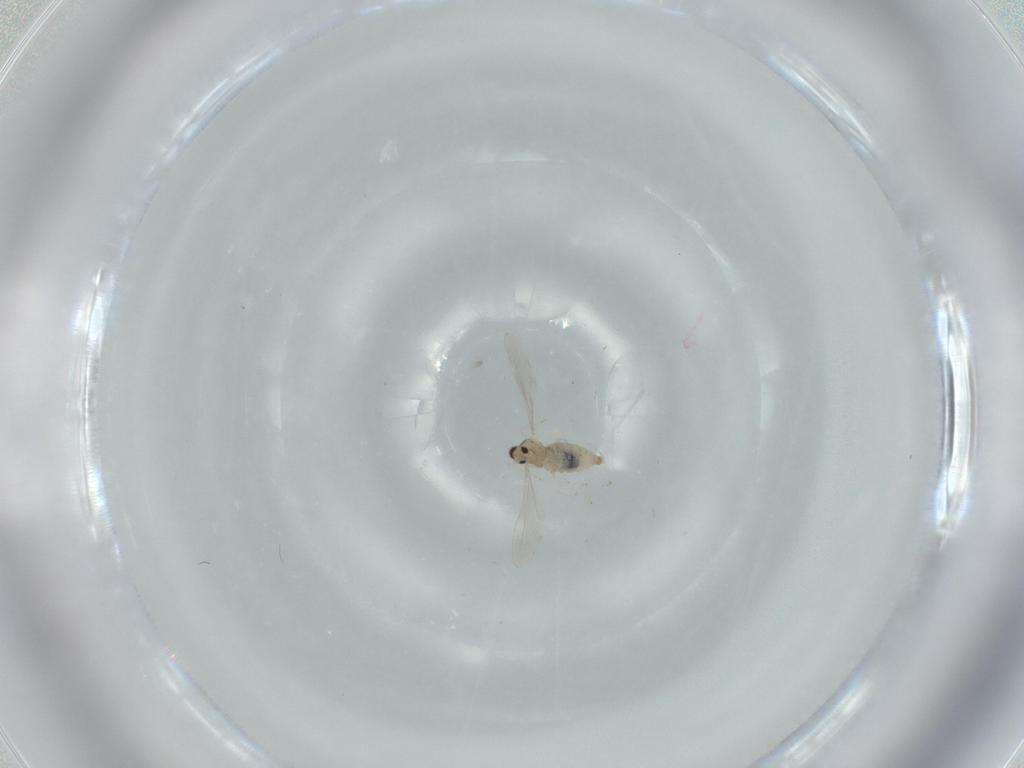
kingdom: Animalia
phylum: Arthropoda
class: Insecta
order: Diptera
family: Cecidomyiidae
